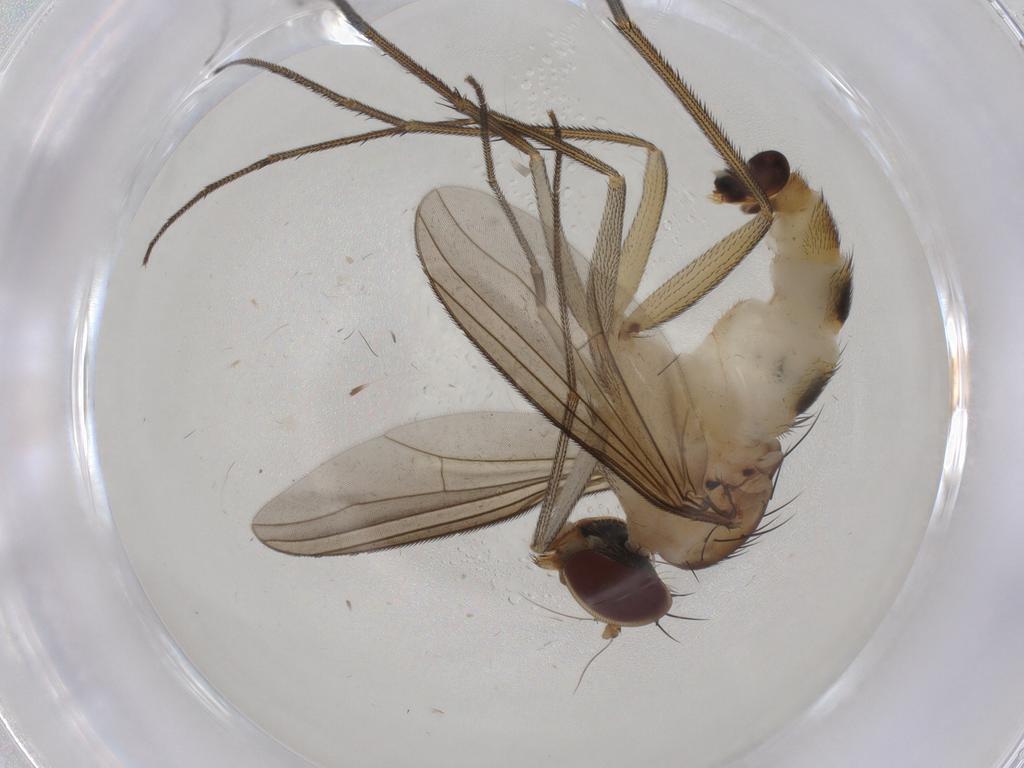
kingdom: Animalia
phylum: Arthropoda
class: Insecta
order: Diptera
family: Dolichopodidae
